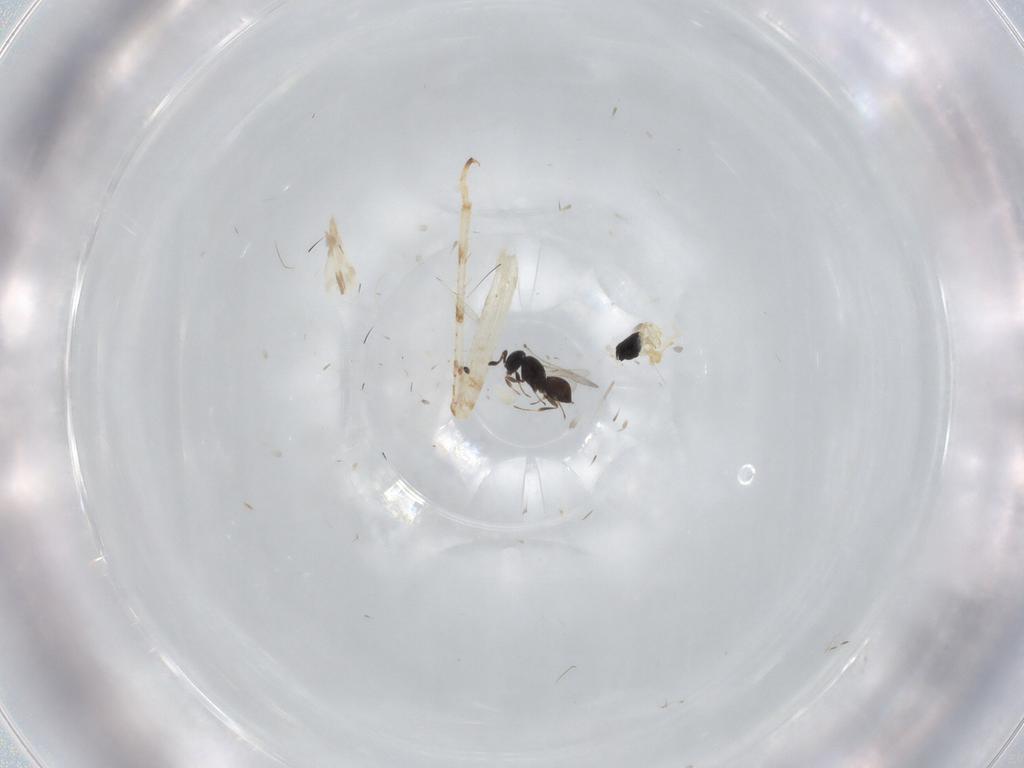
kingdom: Animalia
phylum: Arthropoda
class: Insecta
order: Hymenoptera
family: Scelionidae
